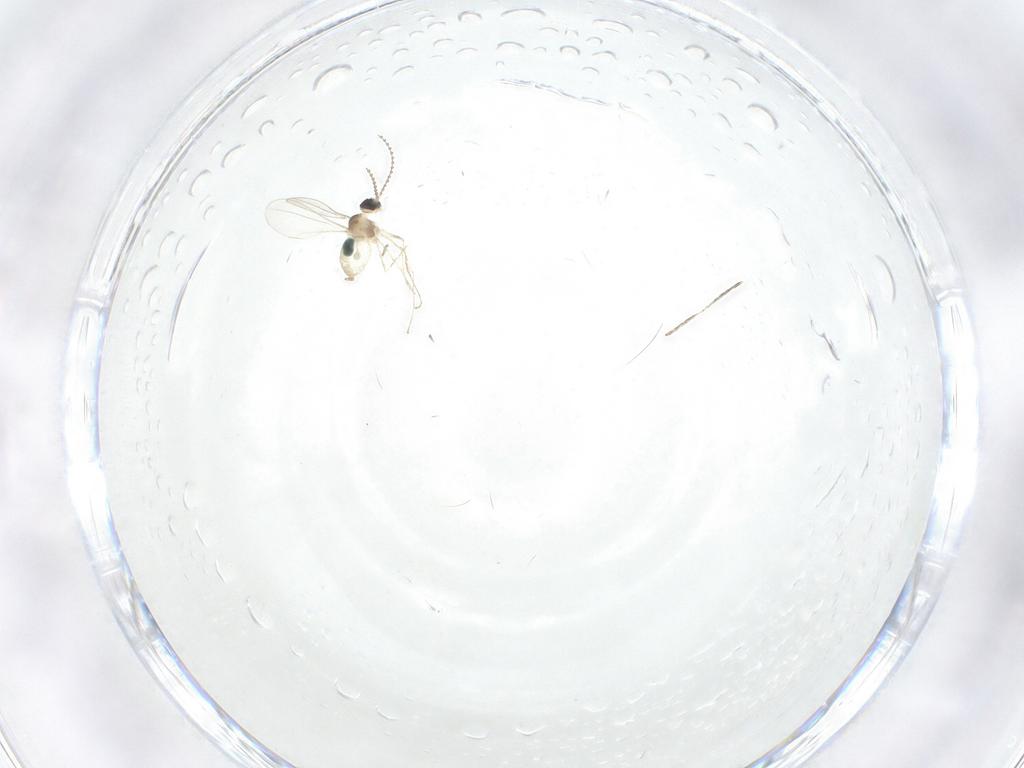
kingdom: Animalia
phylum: Arthropoda
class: Insecta
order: Diptera
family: Cecidomyiidae
